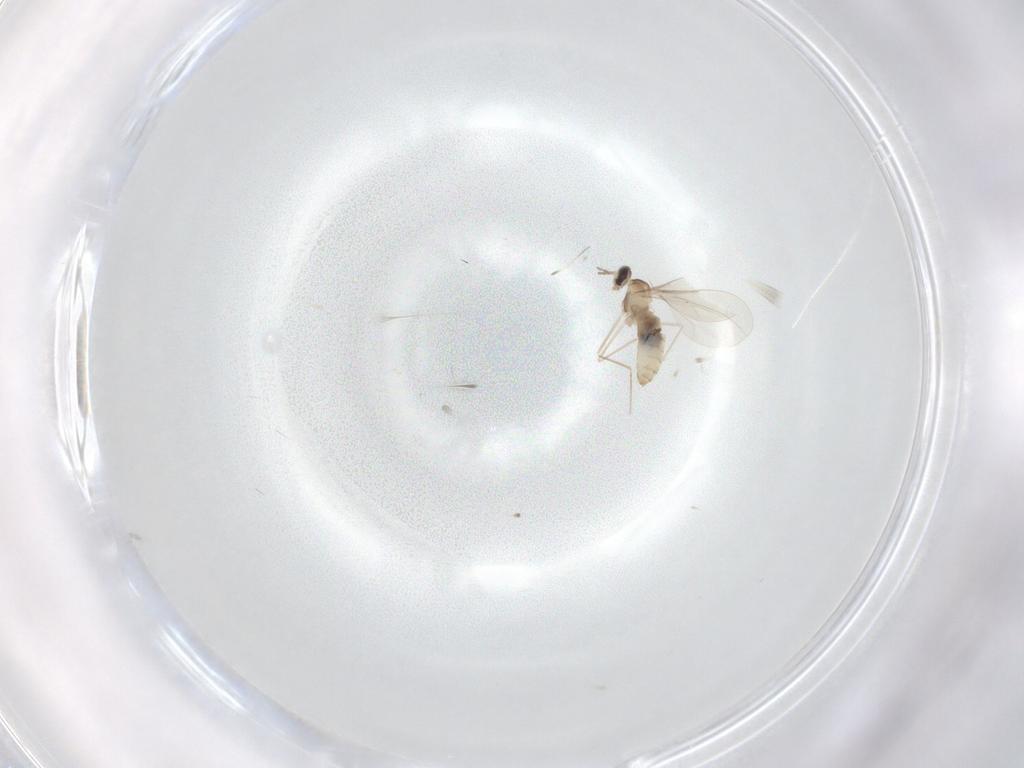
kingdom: Animalia
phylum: Arthropoda
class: Insecta
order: Diptera
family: Cecidomyiidae
